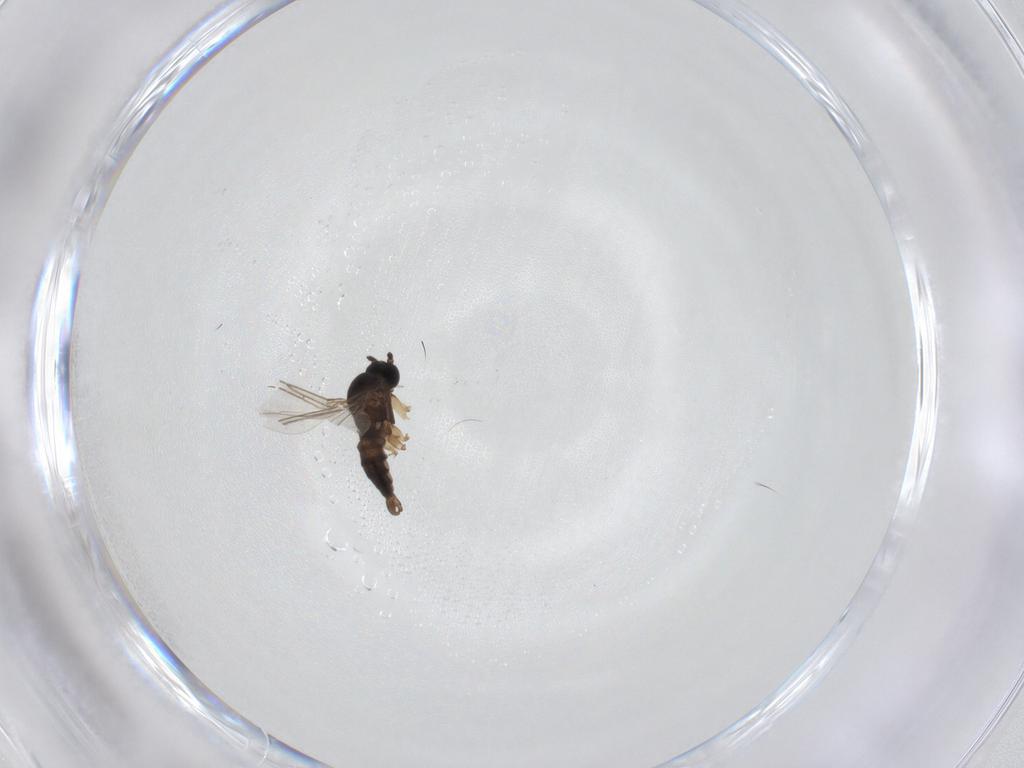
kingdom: Animalia
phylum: Arthropoda
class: Insecta
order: Diptera
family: Sciaridae
